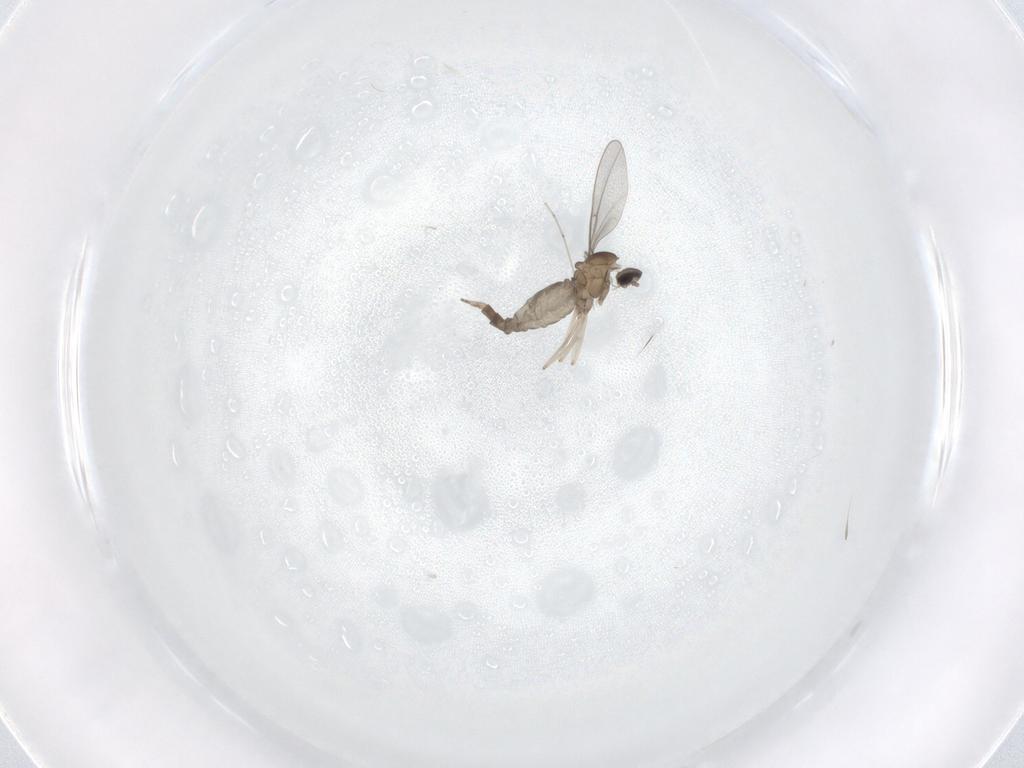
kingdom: Animalia
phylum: Arthropoda
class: Insecta
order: Diptera
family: Cecidomyiidae
